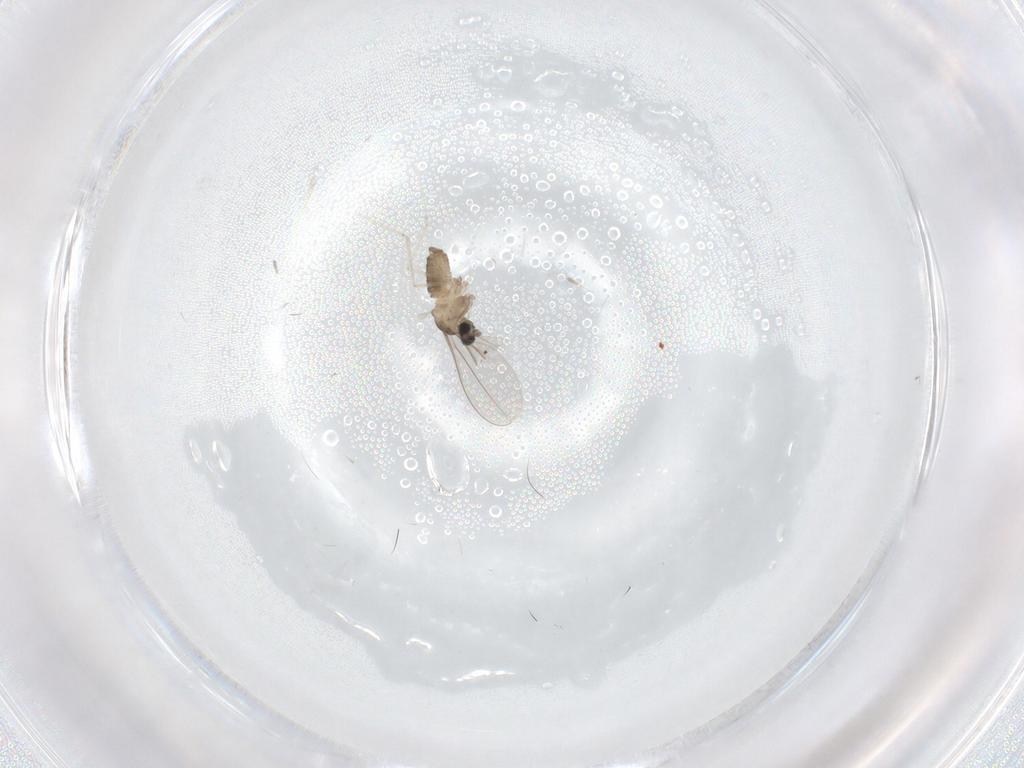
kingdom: Animalia
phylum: Arthropoda
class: Insecta
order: Diptera
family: Phoridae
